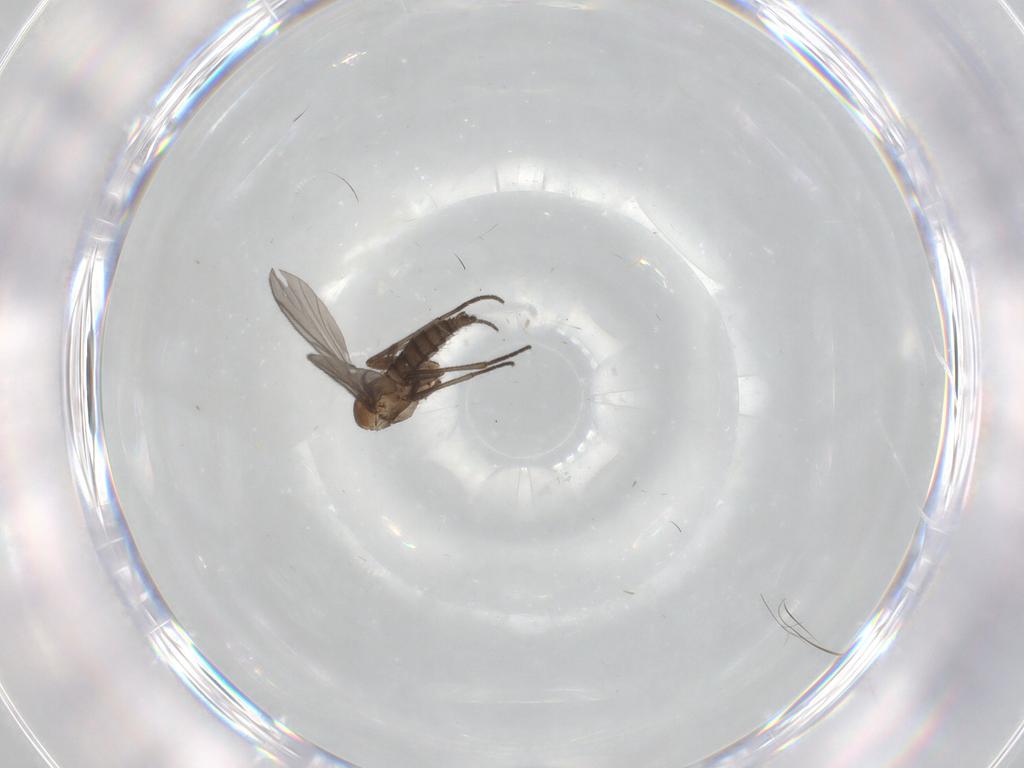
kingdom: Animalia
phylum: Arthropoda
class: Insecta
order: Diptera
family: Sciaridae
